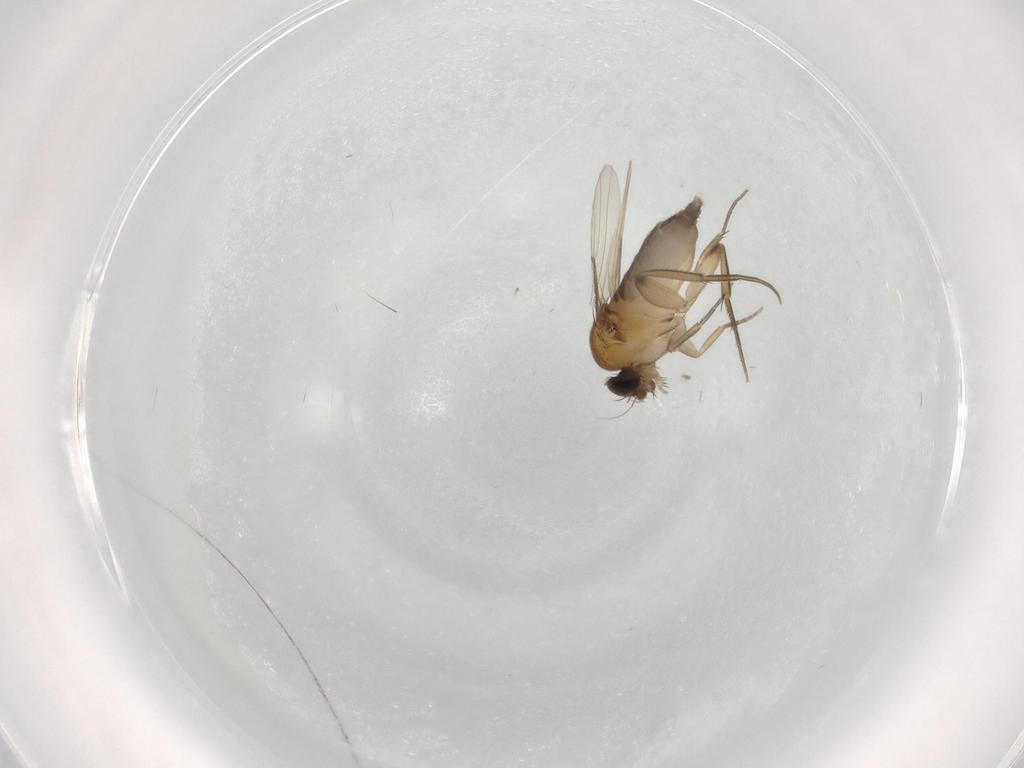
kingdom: Animalia
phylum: Arthropoda
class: Insecta
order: Diptera
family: Phoridae
